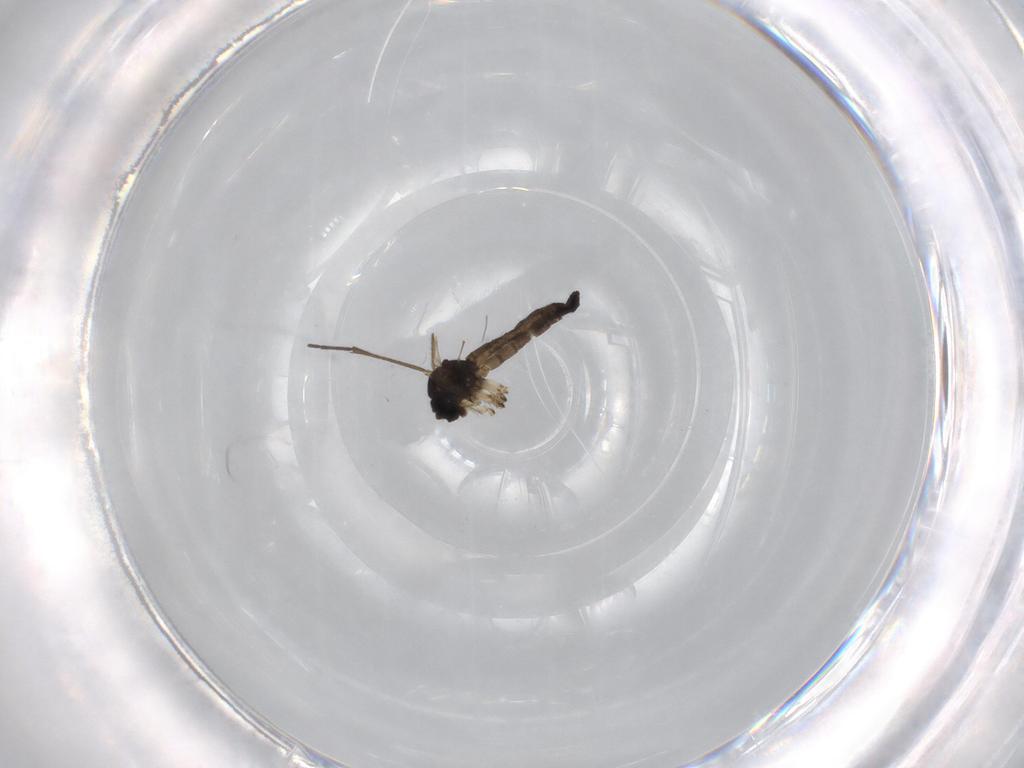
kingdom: Animalia
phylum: Arthropoda
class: Insecta
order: Diptera
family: Sciaridae
